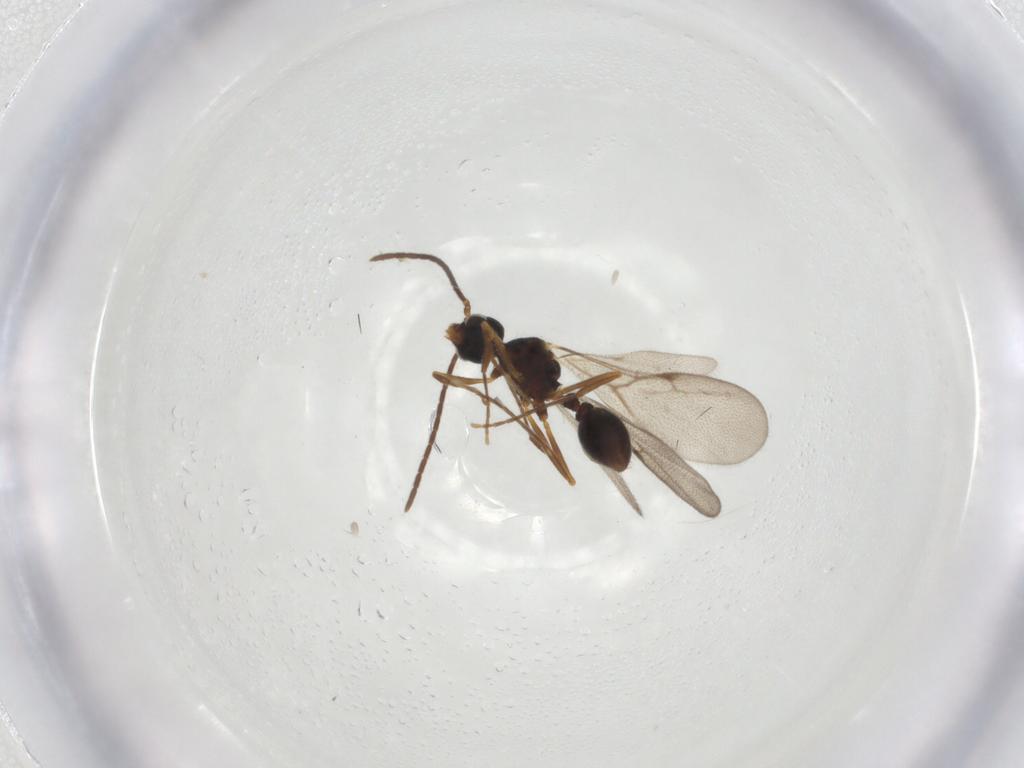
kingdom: Animalia
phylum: Arthropoda
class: Insecta
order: Hymenoptera
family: Formicidae
